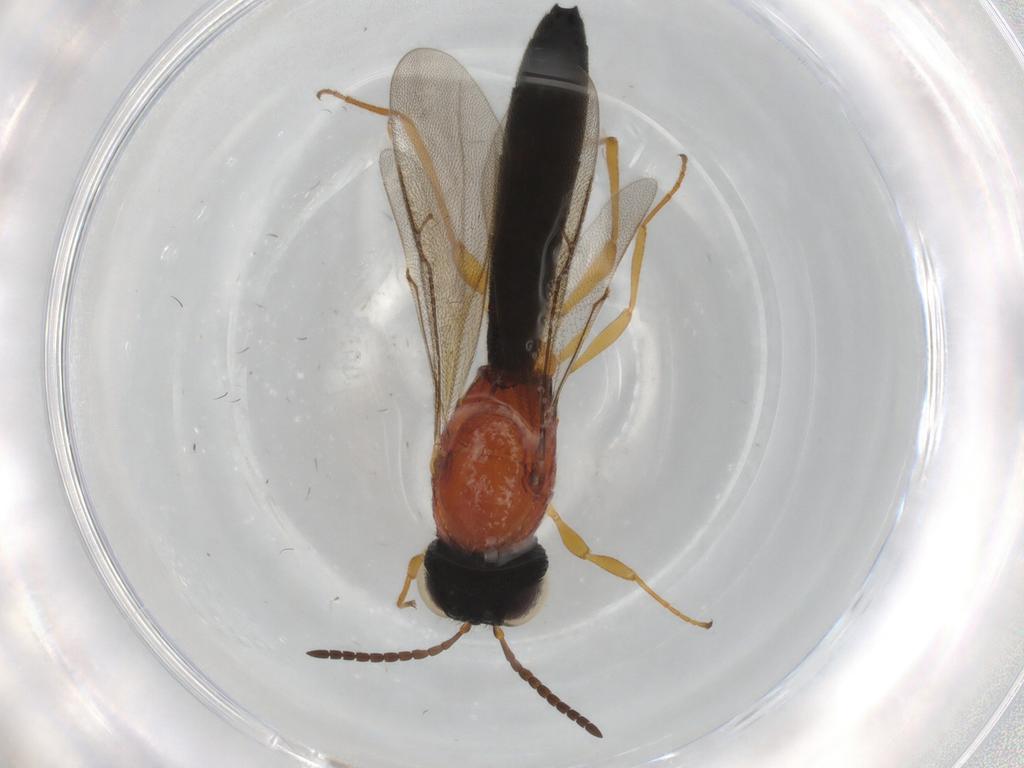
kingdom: Animalia
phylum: Arthropoda
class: Insecta
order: Hymenoptera
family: Scelionidae
